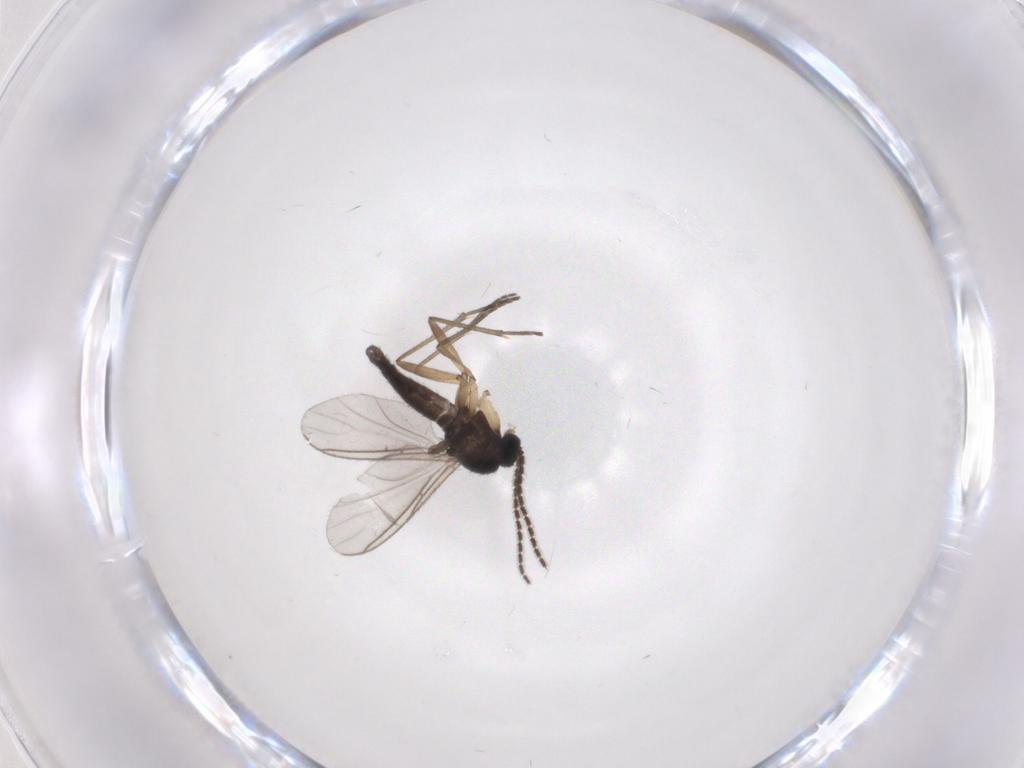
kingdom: Animalia
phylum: Arthropoda
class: Insecta
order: Diptera
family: Sciaridae
